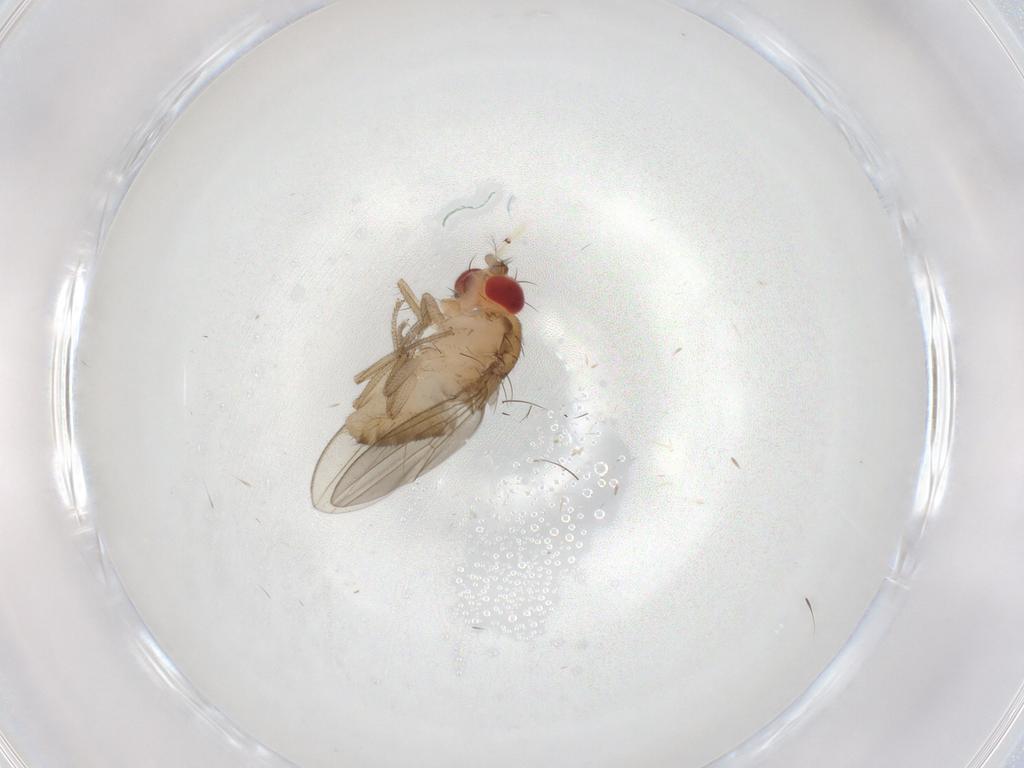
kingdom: Animalia
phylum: Arthropoda
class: Insecta
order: Diptera
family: Drosophilidae
